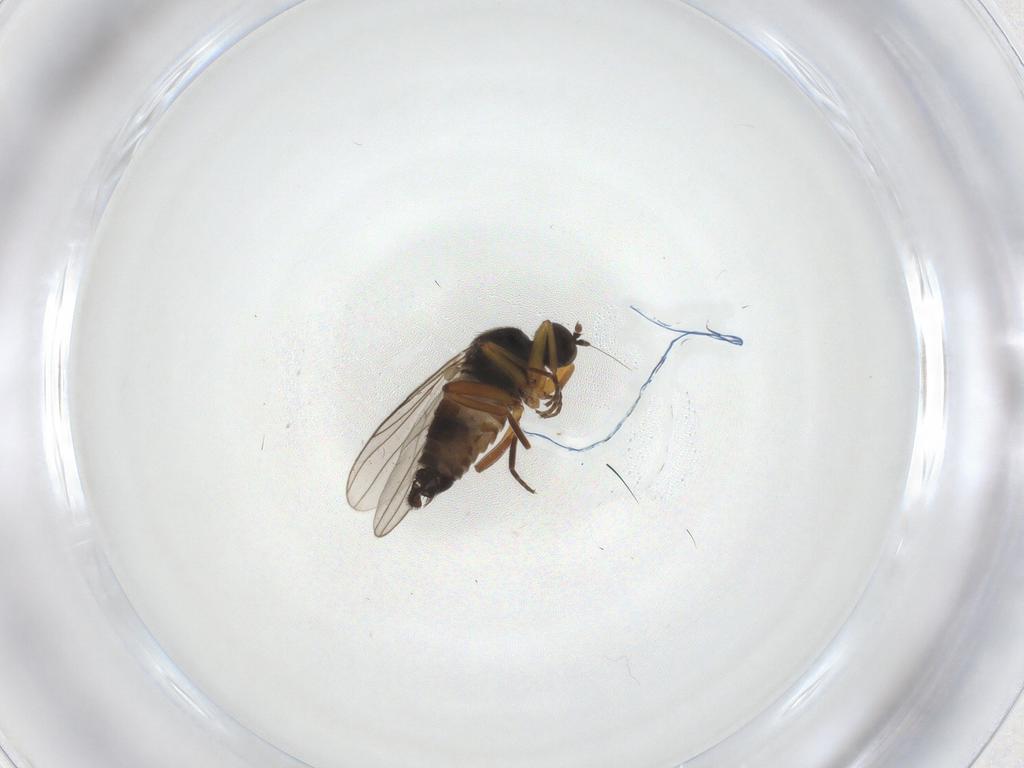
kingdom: Animalia
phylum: Arthropoda
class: Insecta
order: Diptera
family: Hybotidae
